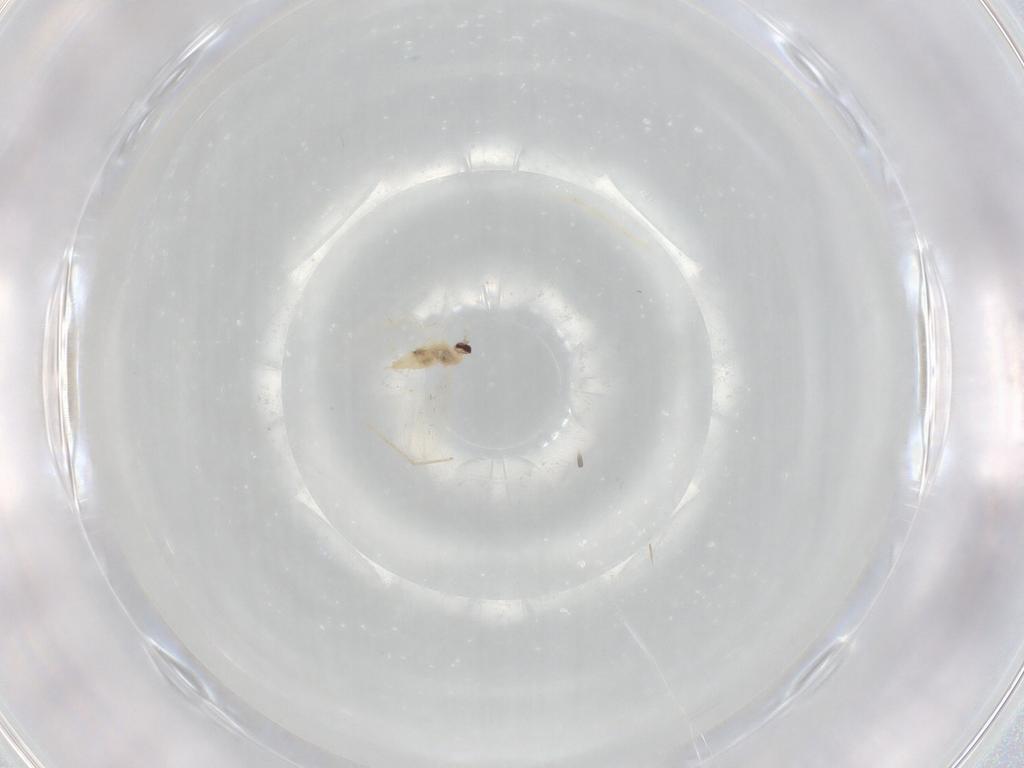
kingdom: Animalia
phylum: Arthropoda
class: Insecta
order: Diptera
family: Cecidomyiidae
